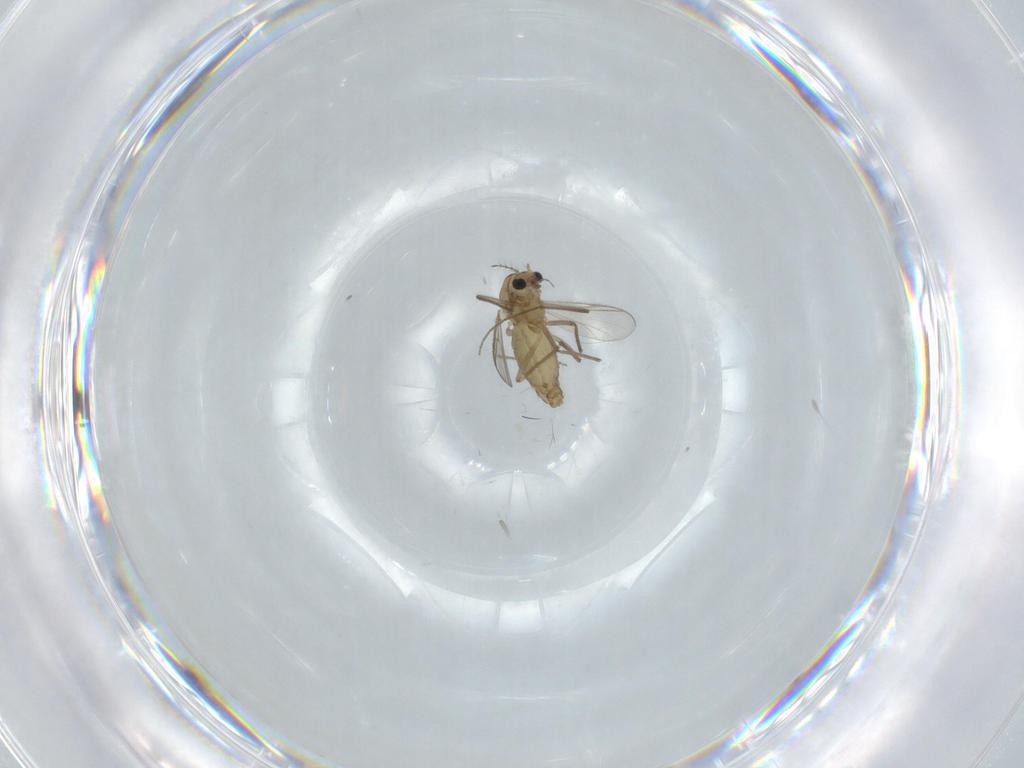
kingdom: Animalia
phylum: Arthropoda
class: Insecta
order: Diptera
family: Chironomidae
